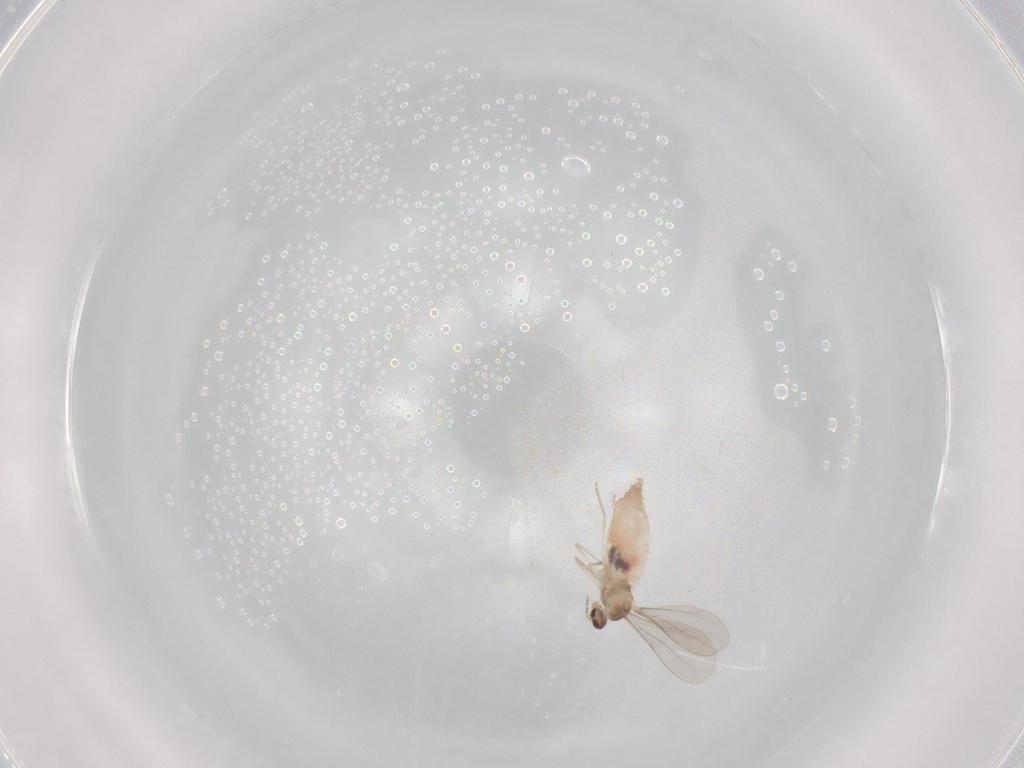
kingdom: Animalia
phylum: Arthropoda
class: Insecta
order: Diptera
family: Cecidomyiidae
